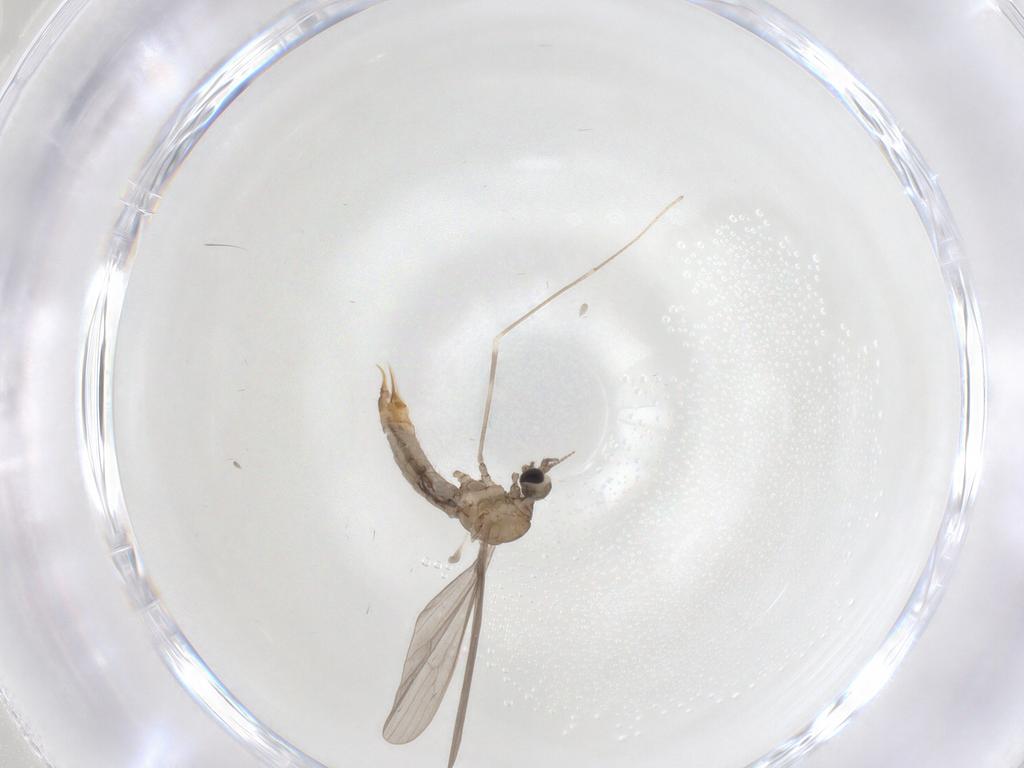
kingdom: Animalia
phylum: Arthropoda
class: Insecta
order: Diptera
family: Limoniidae
